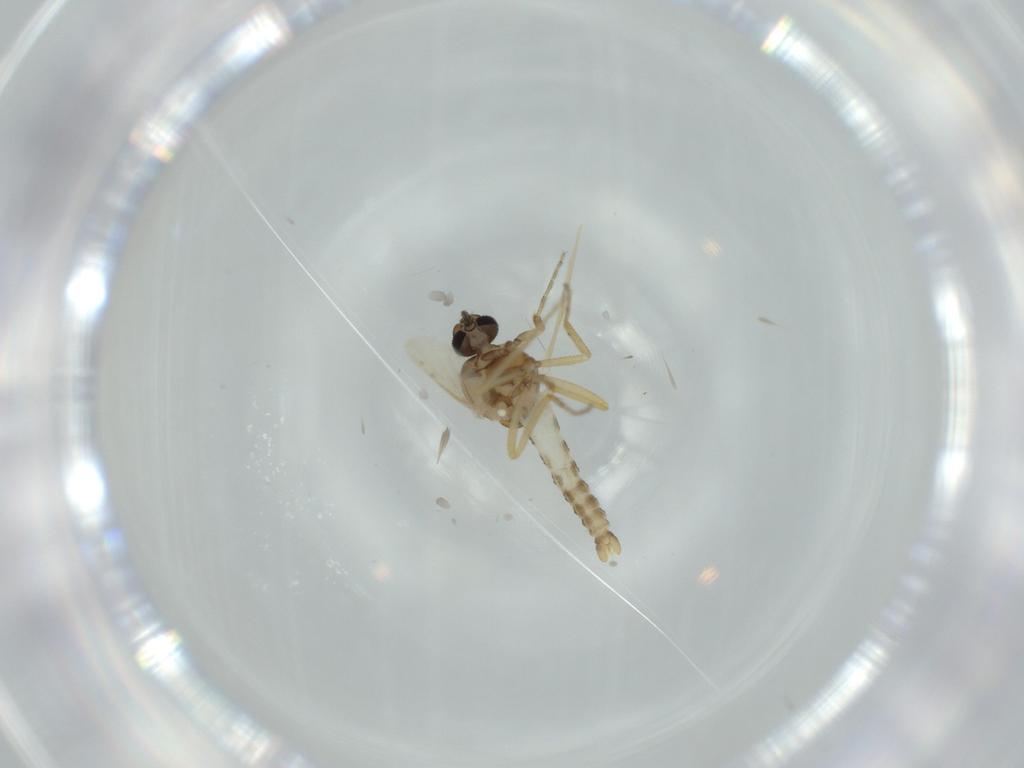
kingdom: Animalia
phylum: Arthropoda
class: Insecta
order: Diptera
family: Ceratopogonidae
